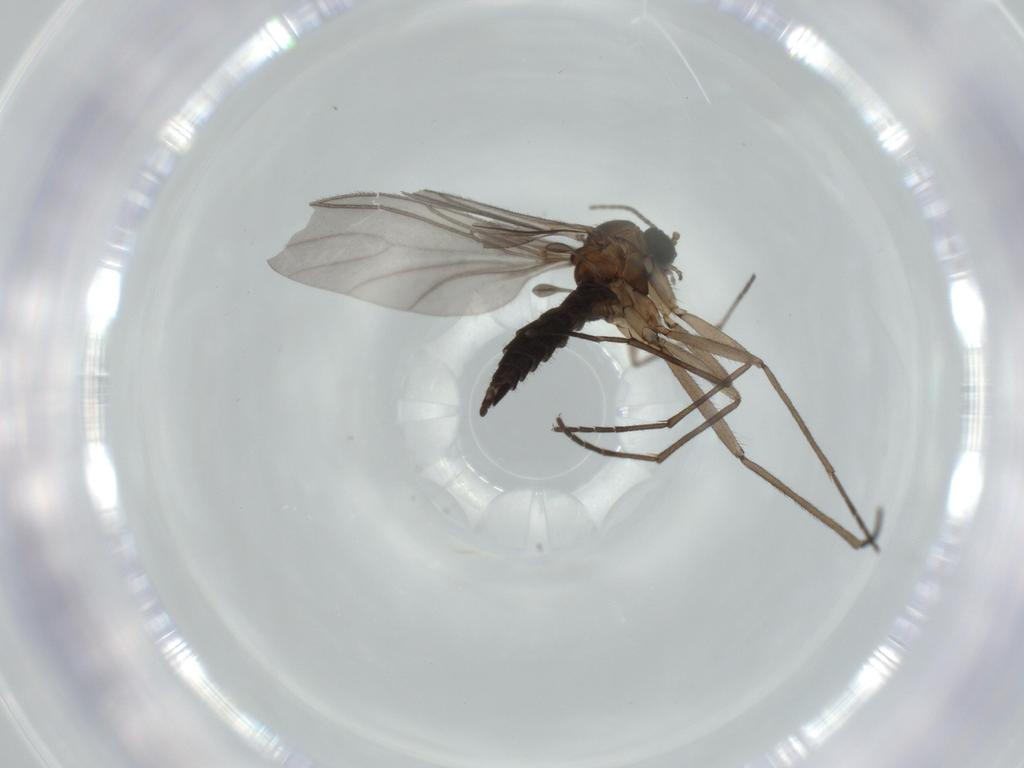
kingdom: Animalia
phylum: Arthropoda
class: Insecta
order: Diptera
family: Sciaridae
